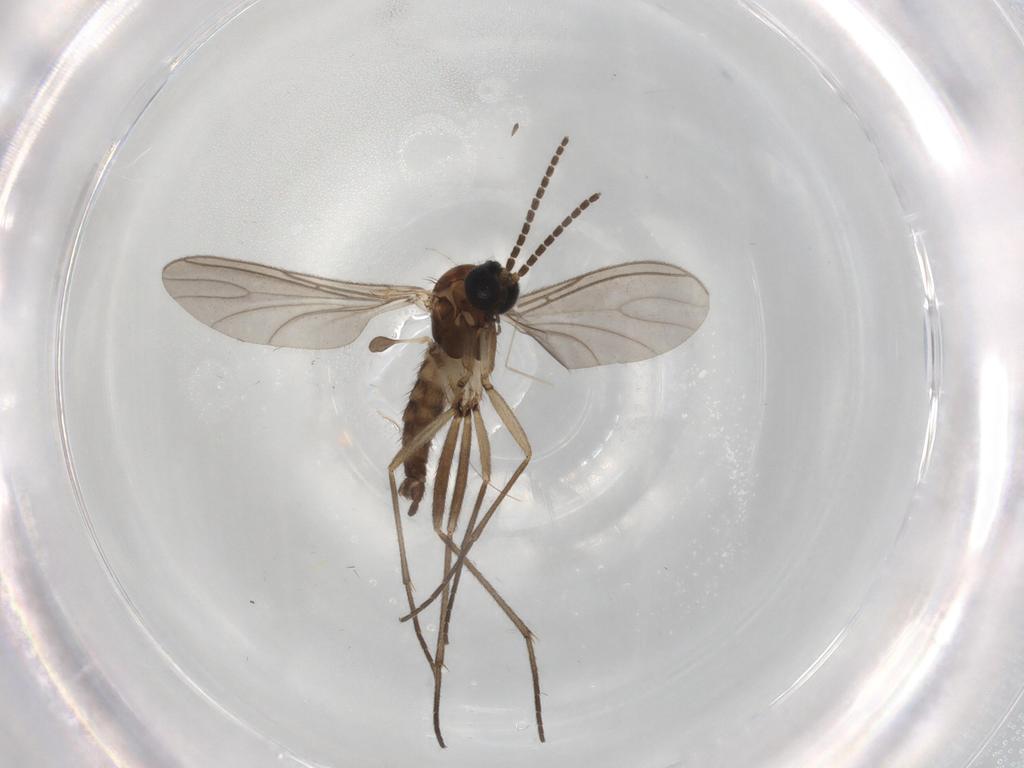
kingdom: Animalia
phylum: Arthropoda
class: Insecta
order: Diptera
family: Sciaridae
